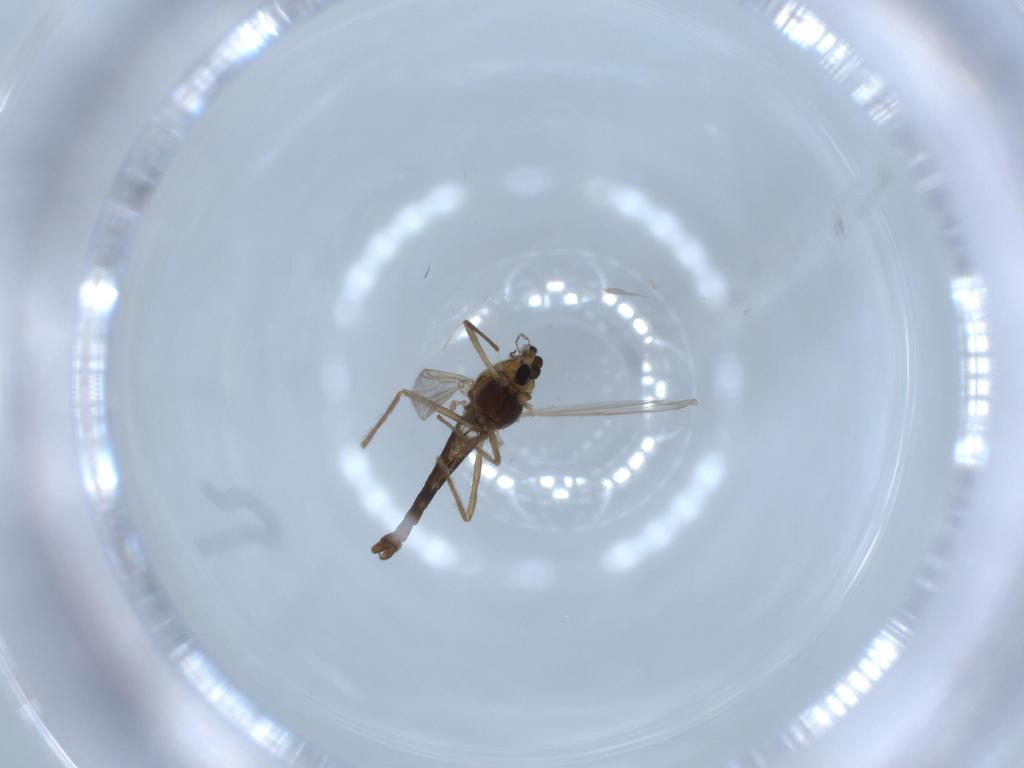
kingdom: Animalia
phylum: Arthropoda
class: Insecta
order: Diptera
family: Chironomidae
